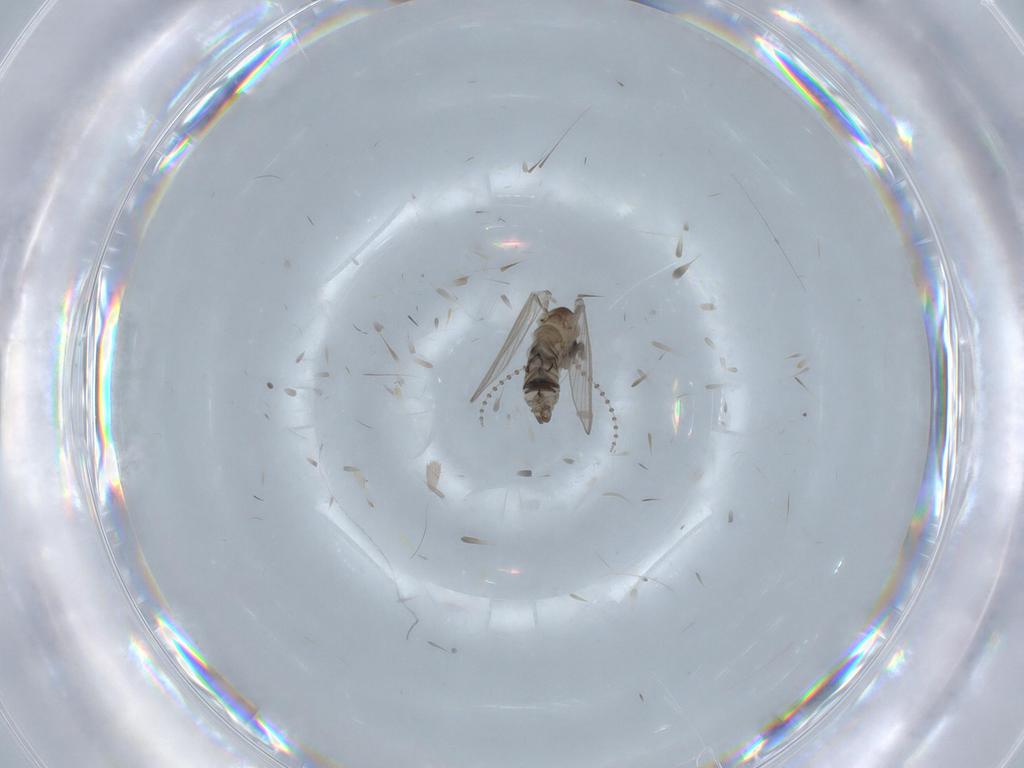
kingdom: Animalia
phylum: Arthropoda
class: Insecta
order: Diptera
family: Psychodidae
